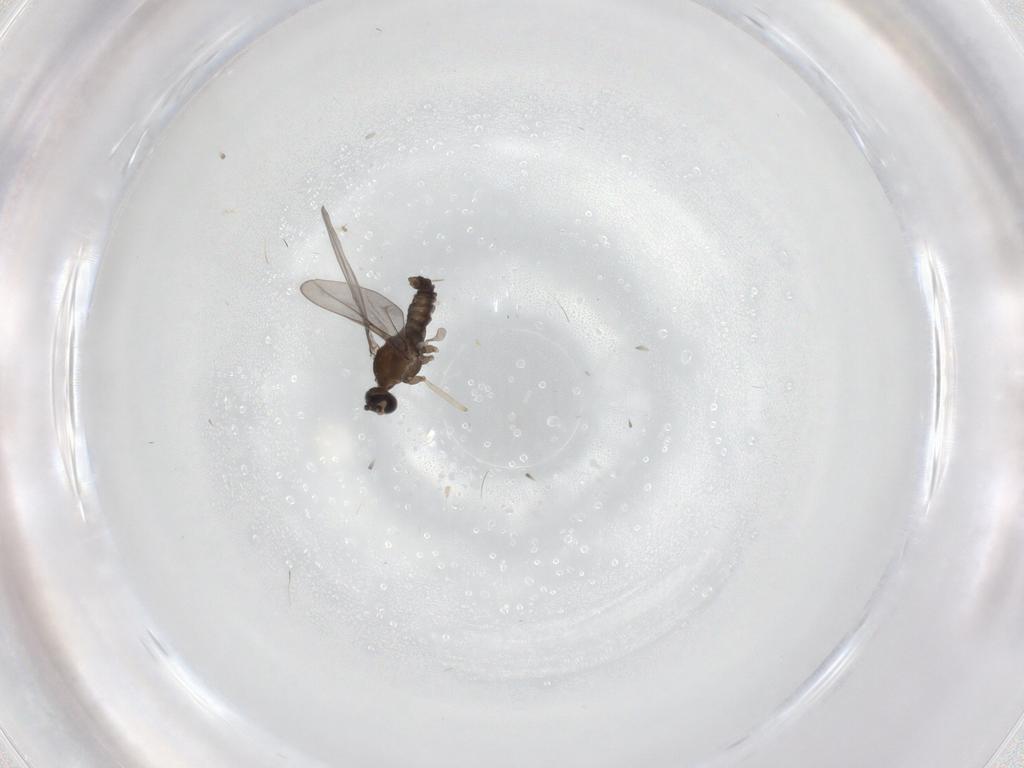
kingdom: Animalia
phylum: Arthropoda
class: Insecta
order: Diptera
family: Cecidomyiidae
